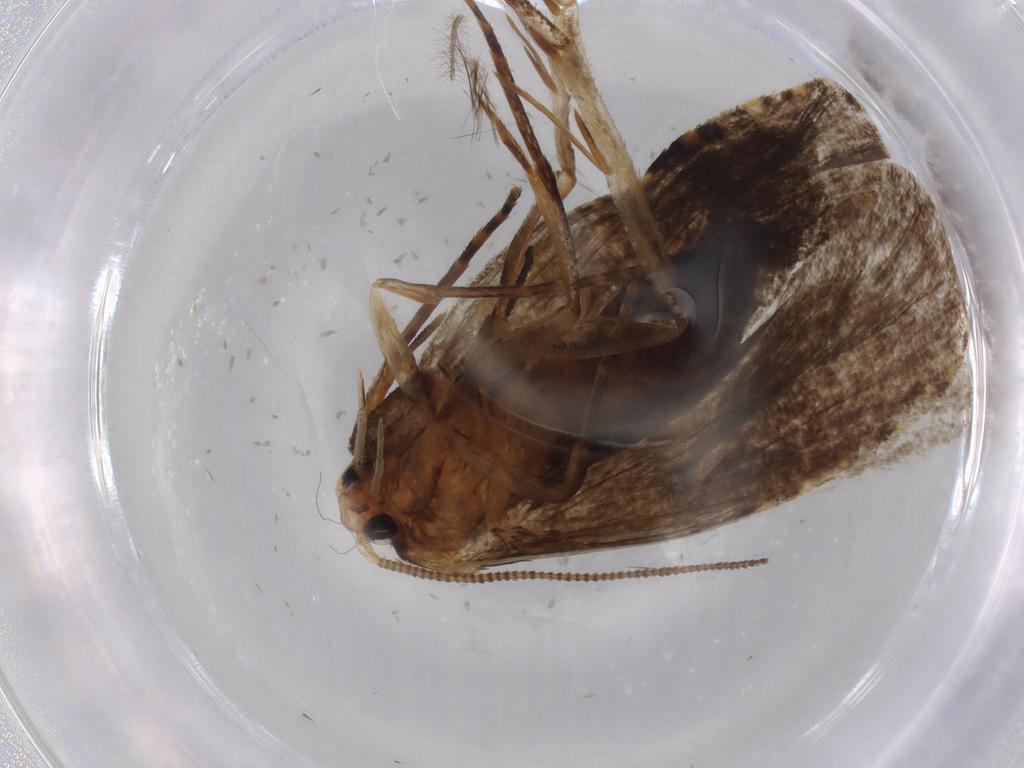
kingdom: Animalia
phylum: Arthropoda
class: Insecta
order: Lepidoptera
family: Tineidae
